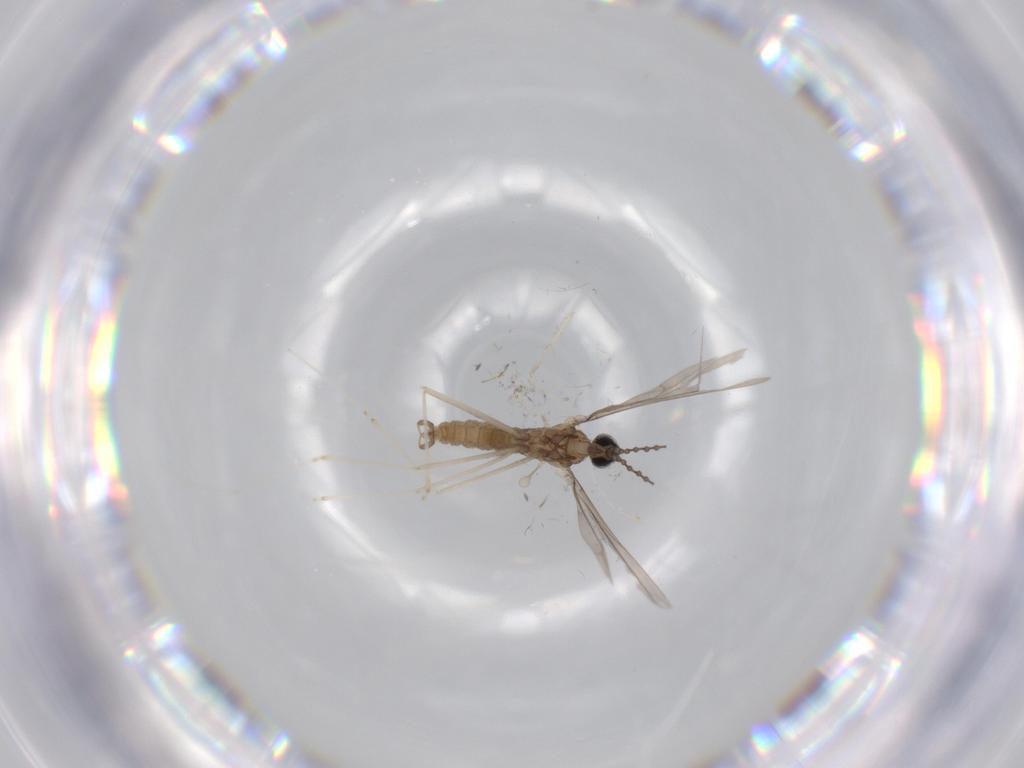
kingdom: Animalia
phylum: Arthropoda
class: Insecta
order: Diptera
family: Cecidomyiidae
